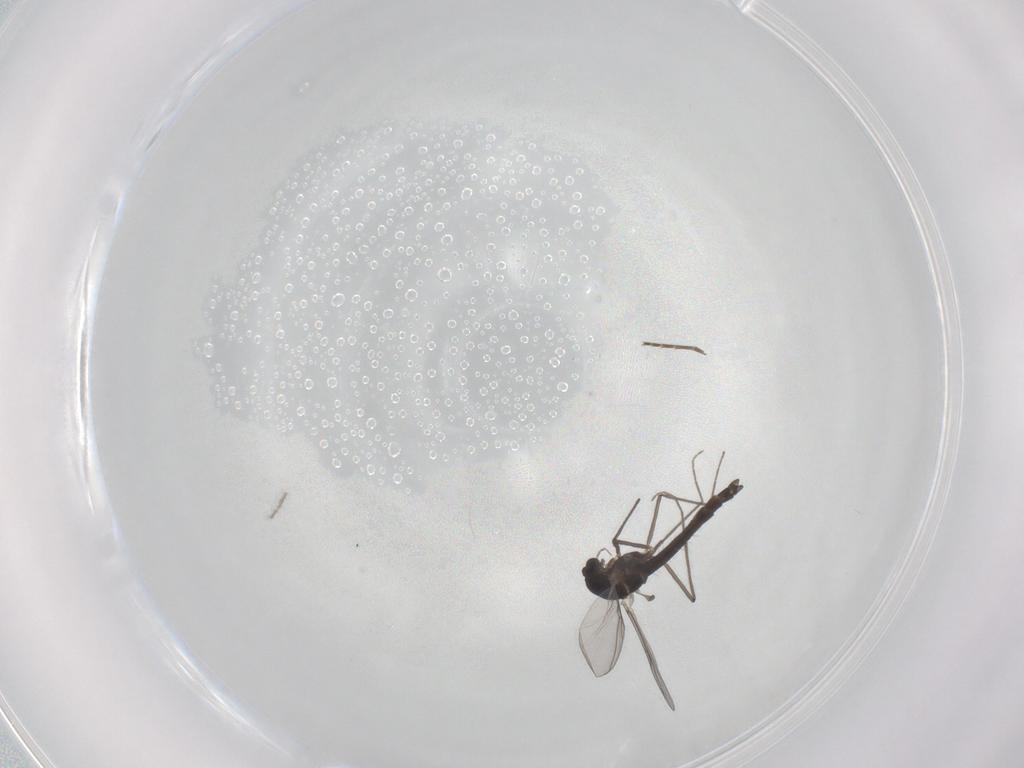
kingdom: Animalia
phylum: Arthropoda
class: Insecta
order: Diptera
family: Chironomidae
